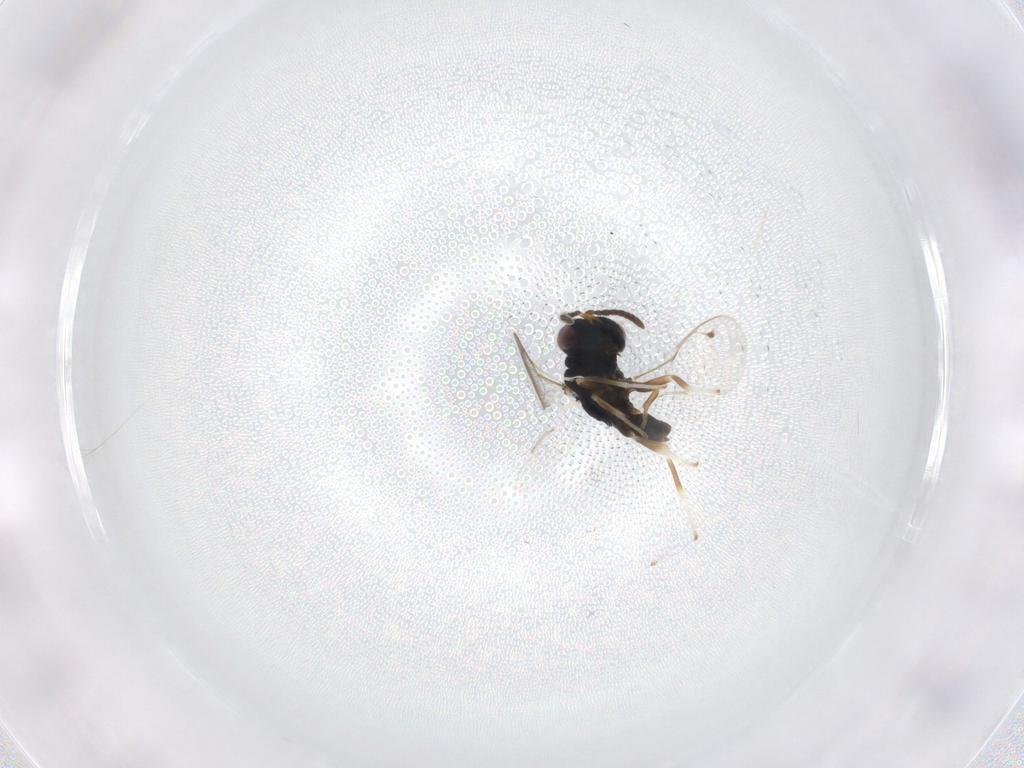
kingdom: Animalia
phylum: Arthropoda
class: Insecta
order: Hymenoptera
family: Pteromalidae
